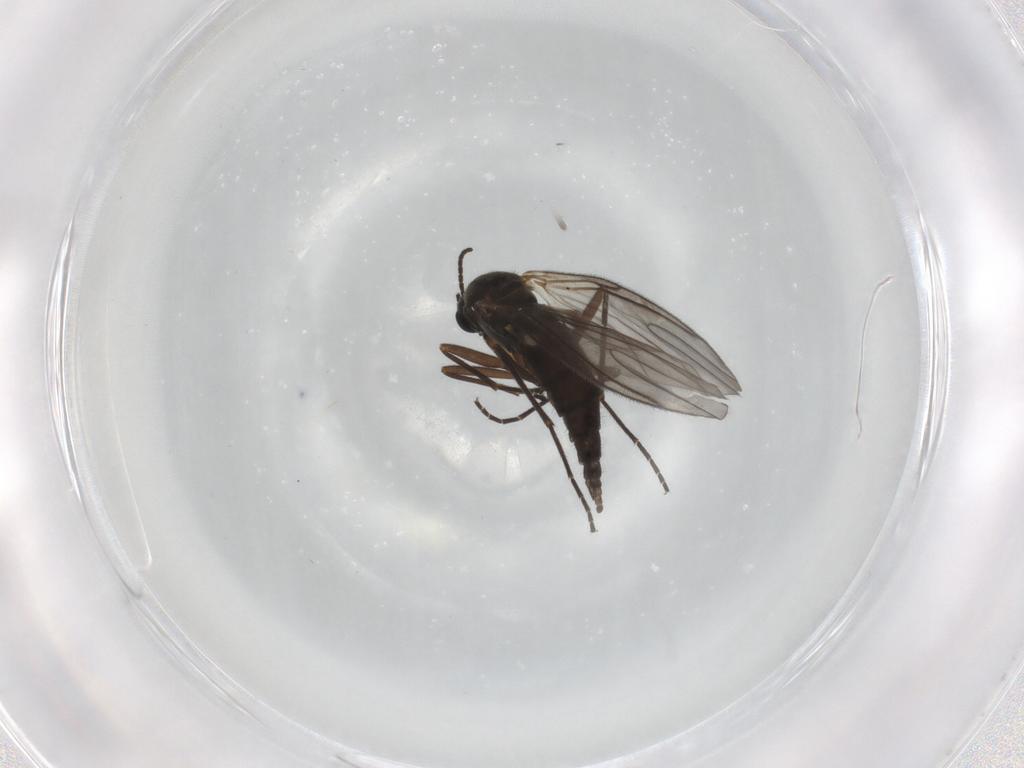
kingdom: Animalia
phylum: Arthropoda
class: Insecta
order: Diptera
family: Sciaridae
